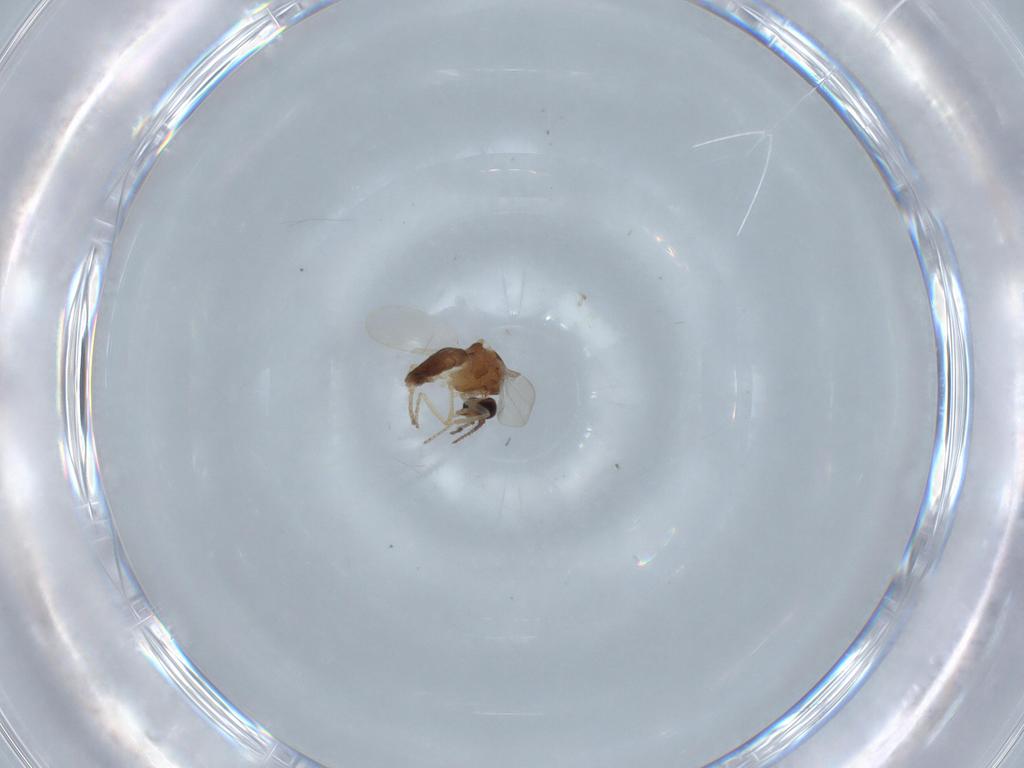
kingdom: Animalia
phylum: Arthropoda
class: Insecta
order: Diptera
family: Ceratopogonidae
